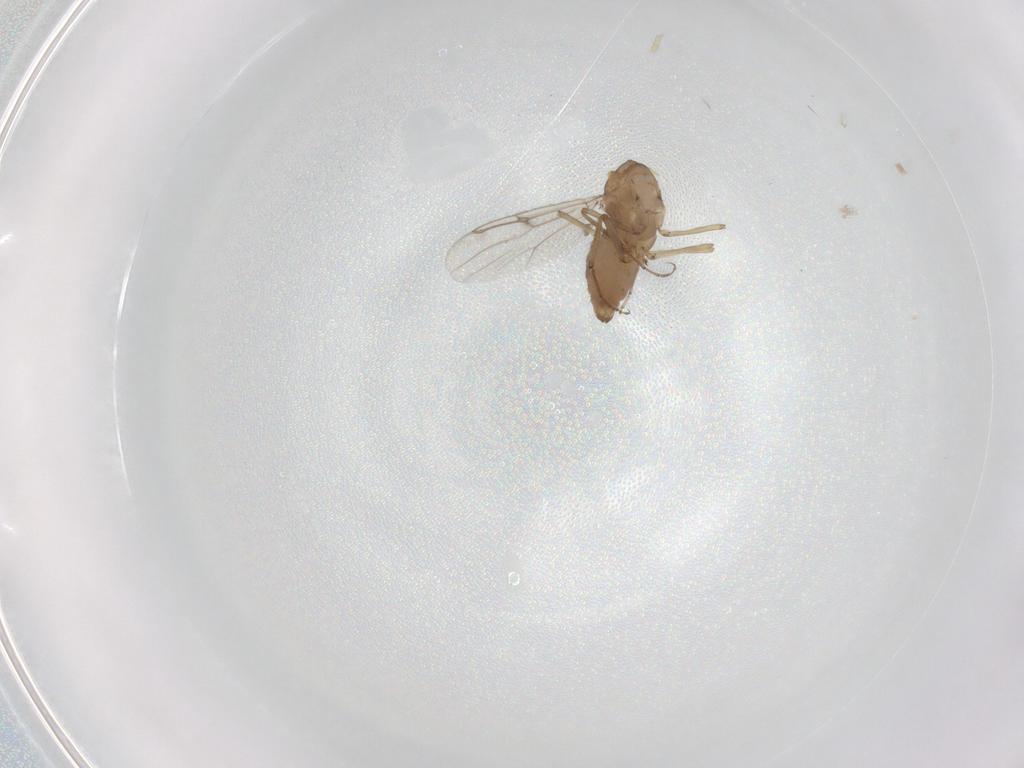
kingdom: Animalia
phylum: Arthropoda
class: Insecta
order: Diptera
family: Ceratopogonidae
